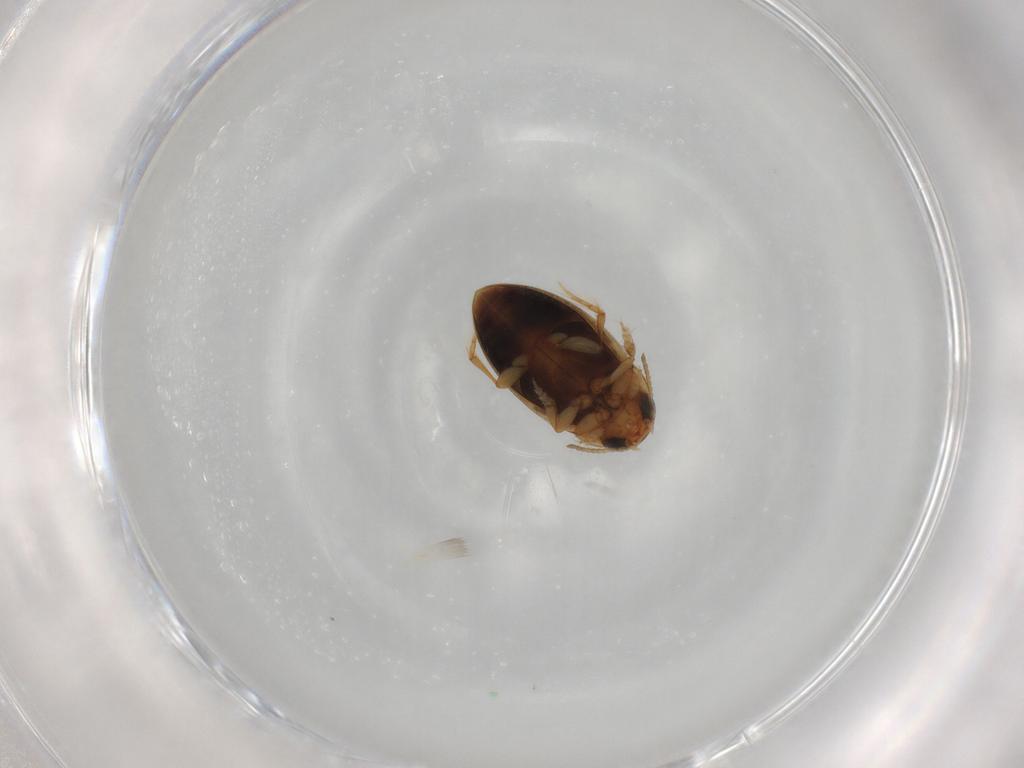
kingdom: Animalia
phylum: Arthropoda
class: Insecta
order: Coleoptera
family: Dytiscidae
